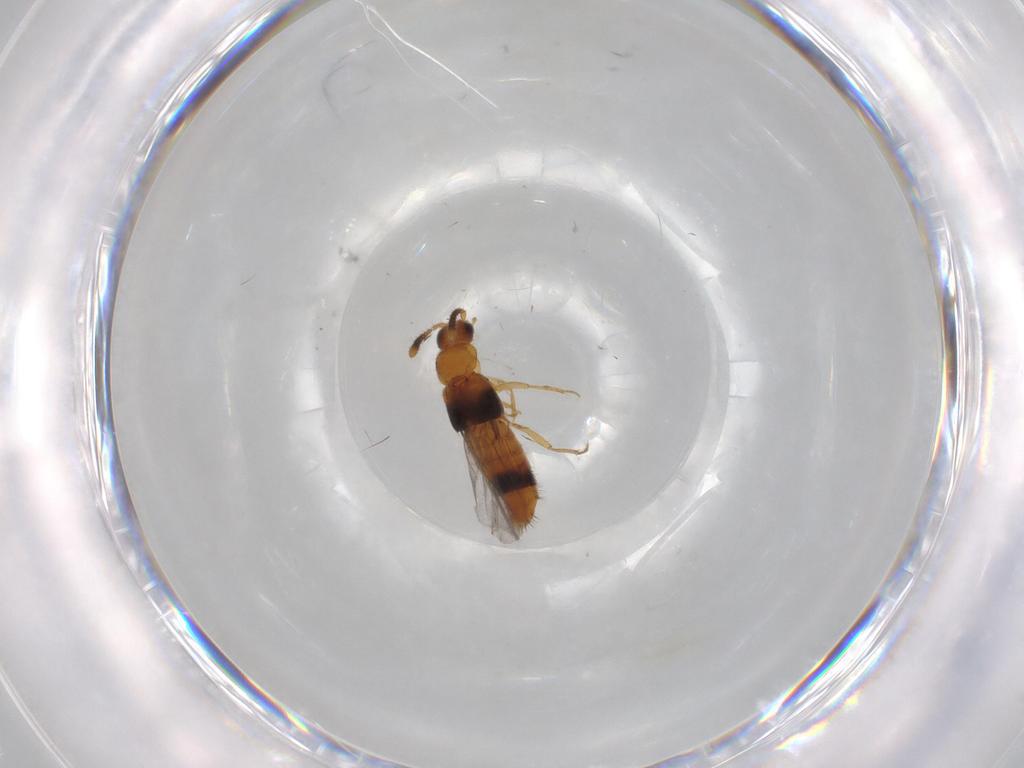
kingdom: Animalia
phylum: Arthropoda
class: Insecta
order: Coleoptera
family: Staphylinidae
